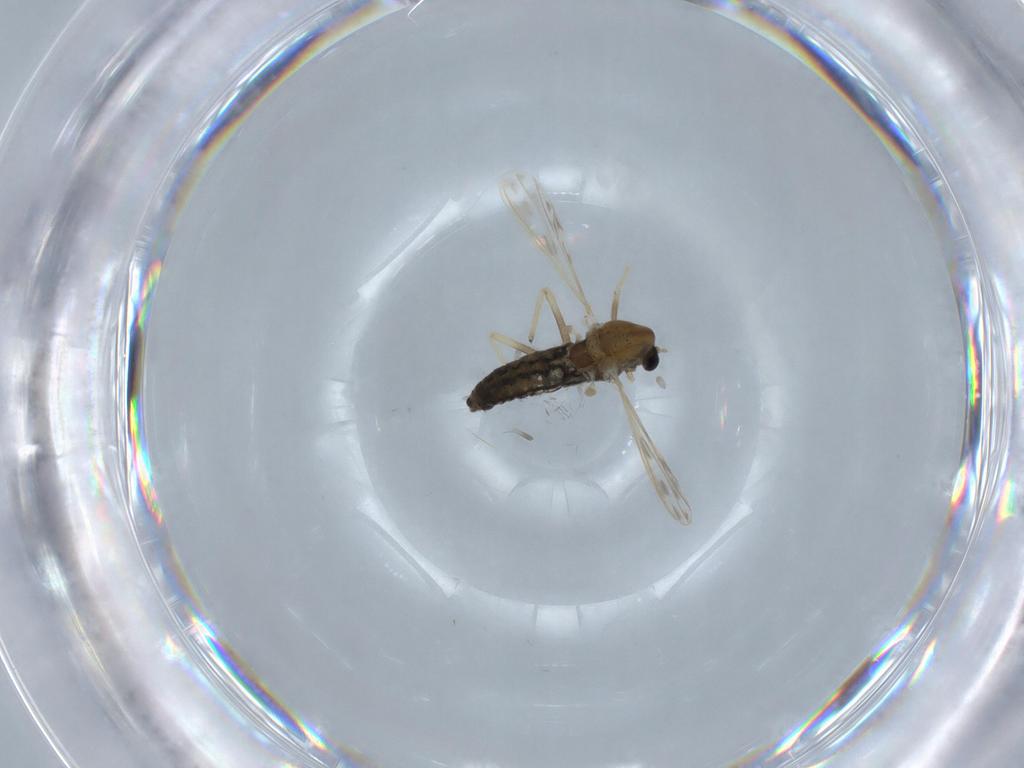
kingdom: Animalia
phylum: Arthropoda
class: Insecta
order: Diptera
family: Chironomidae
